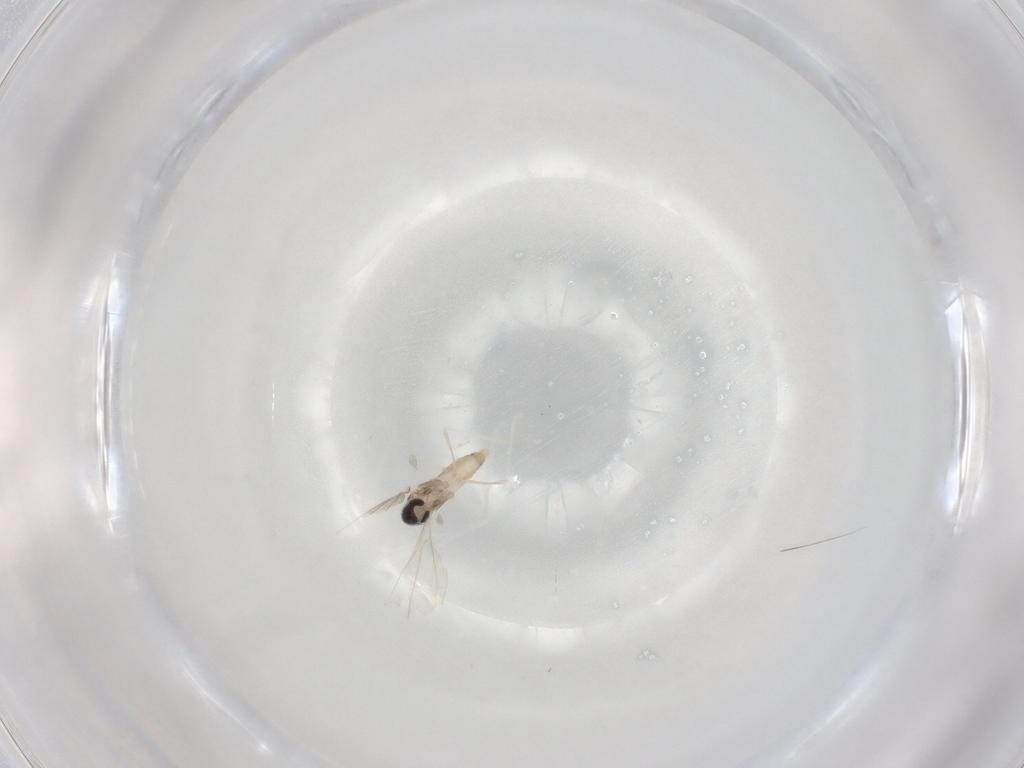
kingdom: Animalia
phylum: Arthropoda
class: Insecta
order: Diptera
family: Cecidomyiidae
